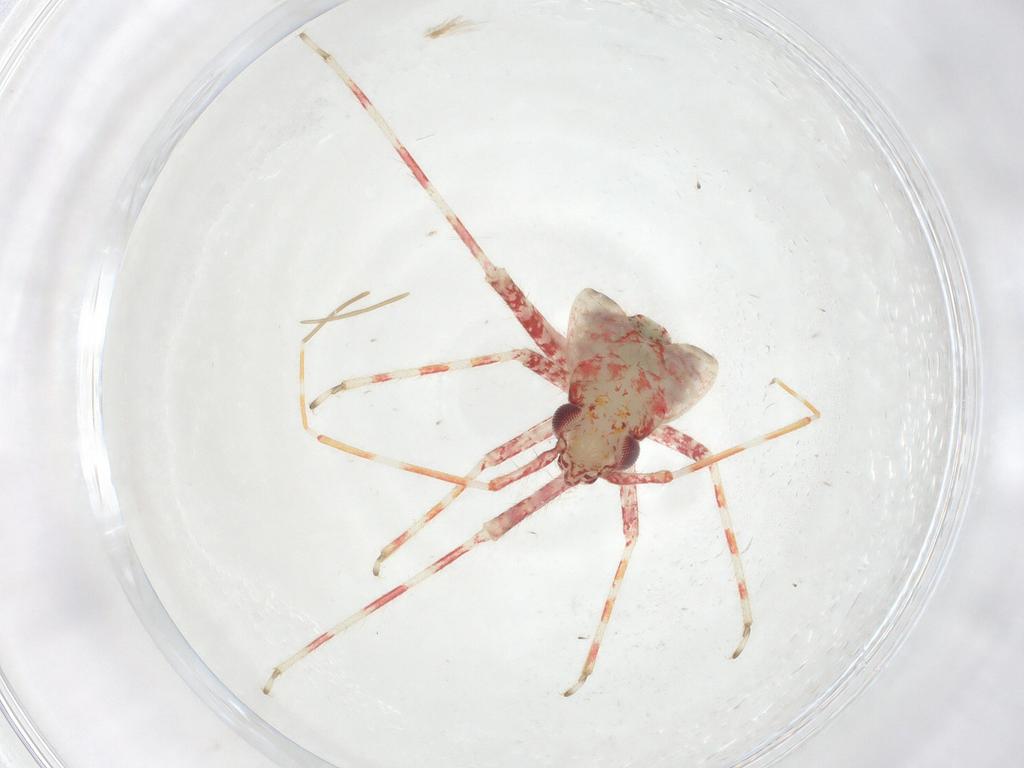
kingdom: Animalia
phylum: Arthropoda
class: Insecta
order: Hemiptera
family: Miridae
